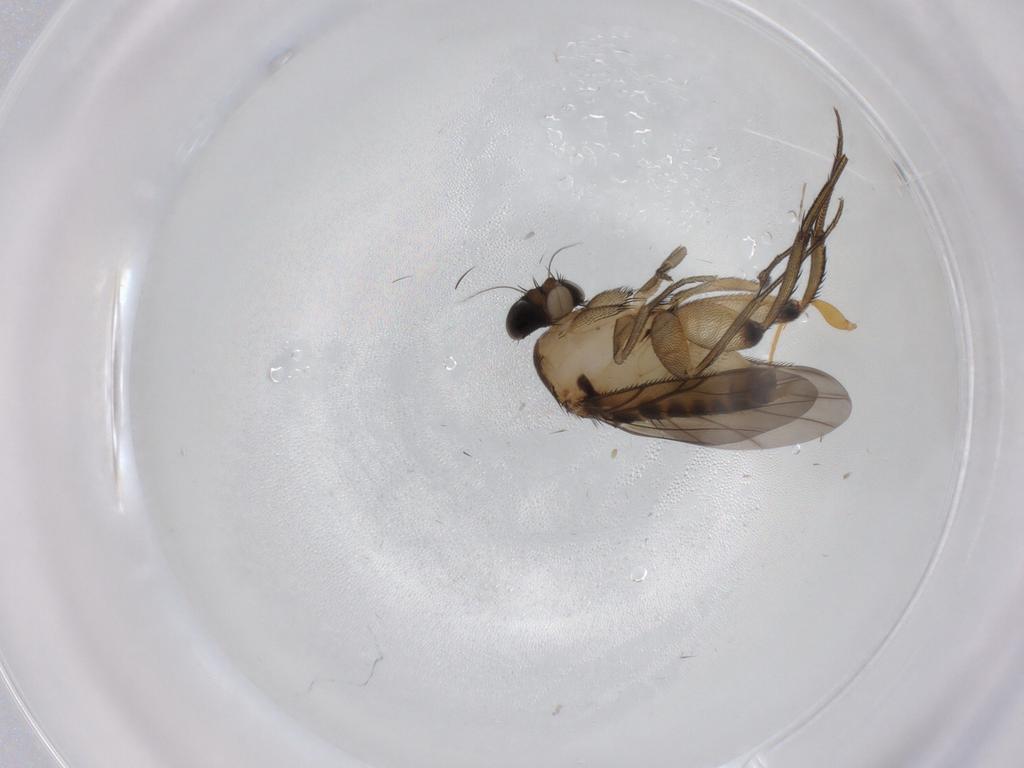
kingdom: Animalia
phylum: Arthropoda
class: Insecta
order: Diptera
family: Phoridae
